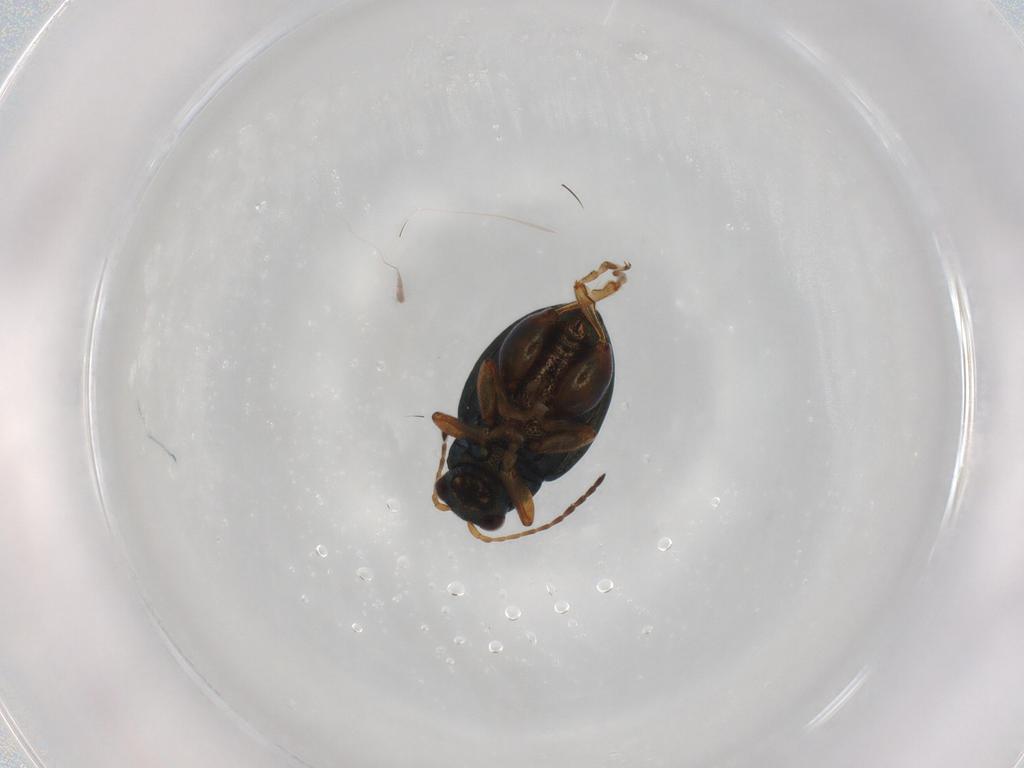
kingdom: Animalia
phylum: Arthropoda
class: Insecta
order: Coleoptera
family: Chrysomelidae
